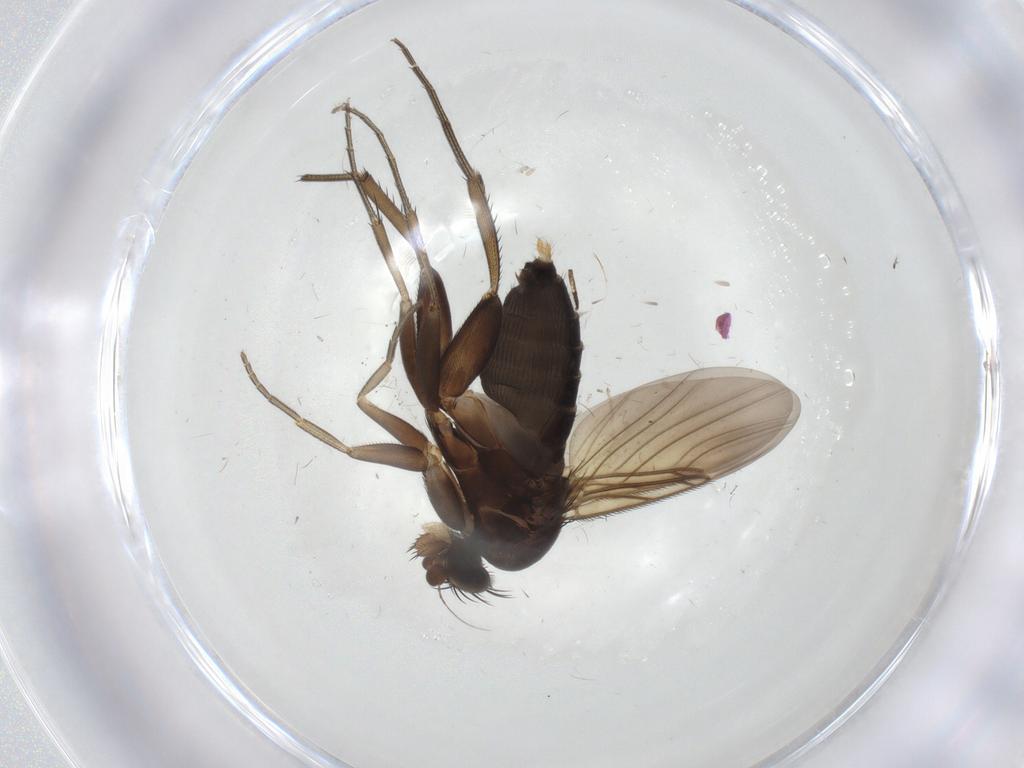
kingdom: Animalia
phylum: Arthropoda
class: Insecta
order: Diptera
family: Phoridae
